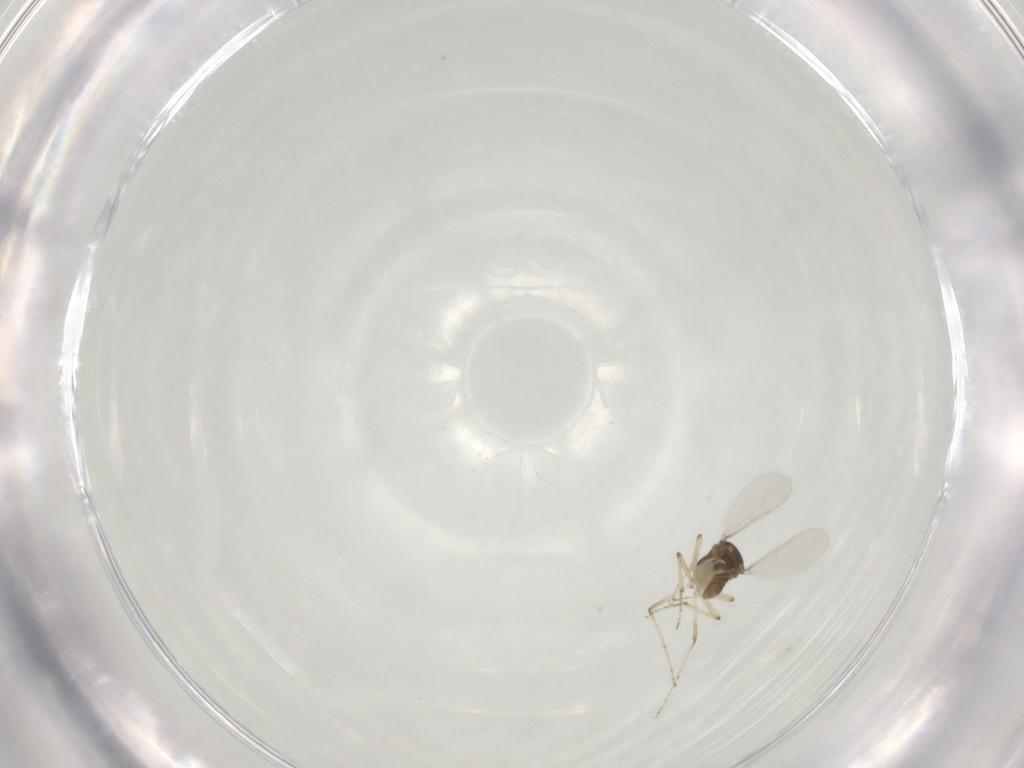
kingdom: Animalia
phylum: Arthropoda
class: Insecta
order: Diptera
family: Ceratopogonidae
